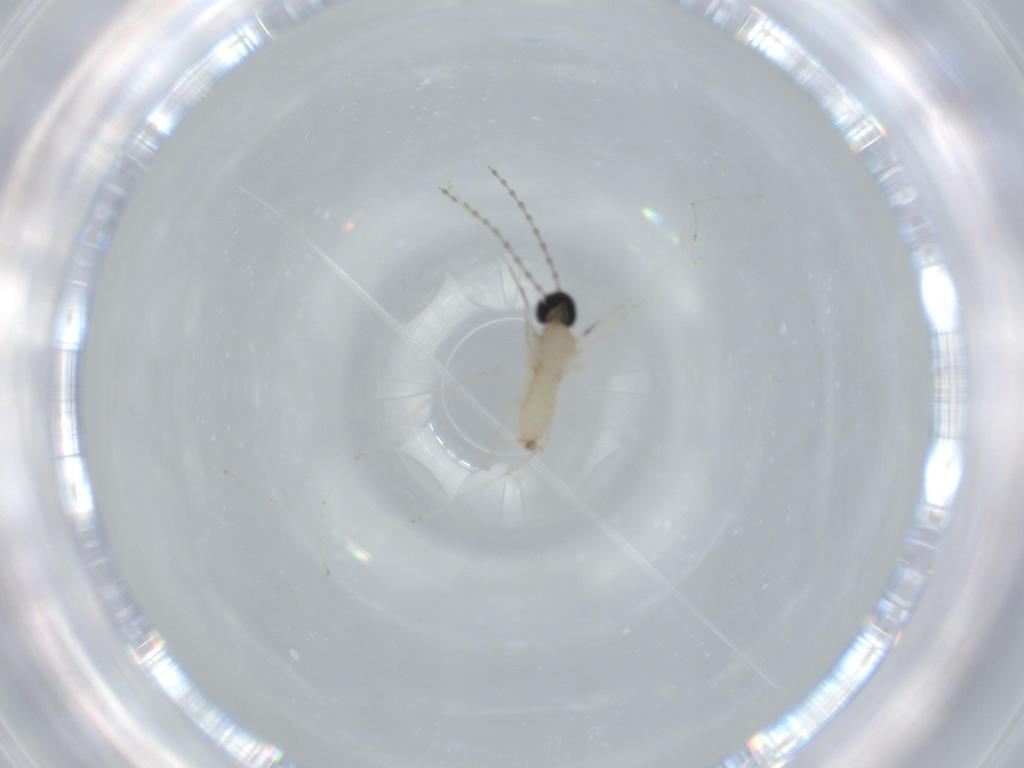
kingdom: Animalia
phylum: Arthropoda
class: Insecta
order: Diptera
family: Cecidomyiidae
